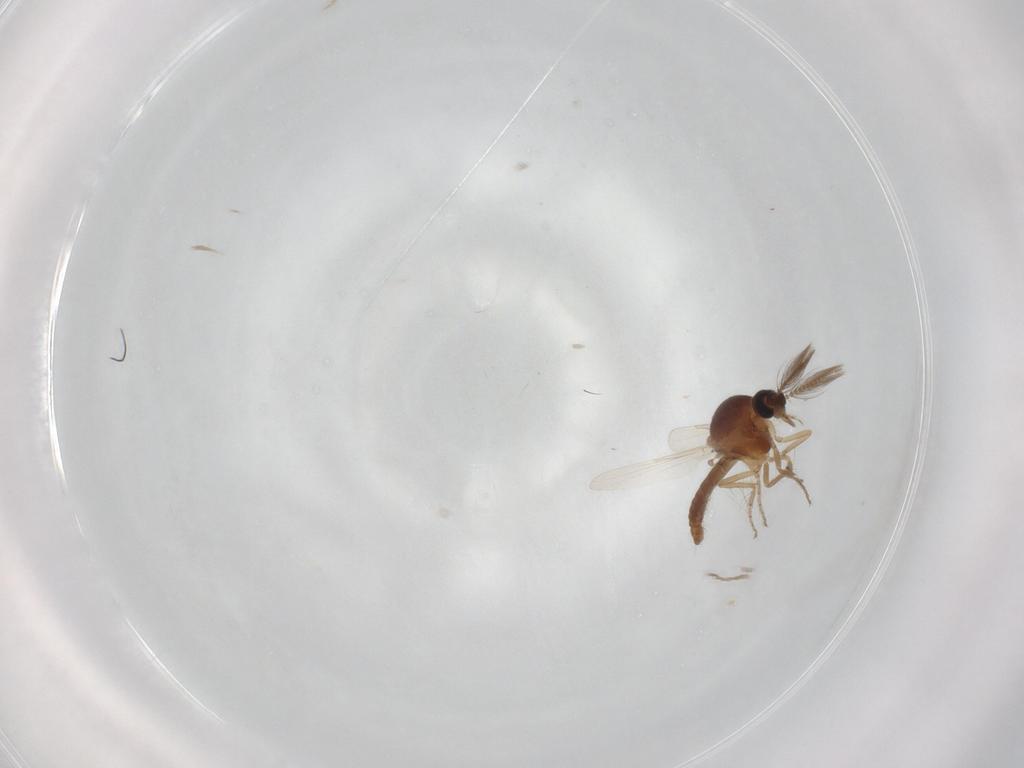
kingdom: Animalia
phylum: Arthropoda
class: Insecta
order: Diptera
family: Ceratopogonidae
